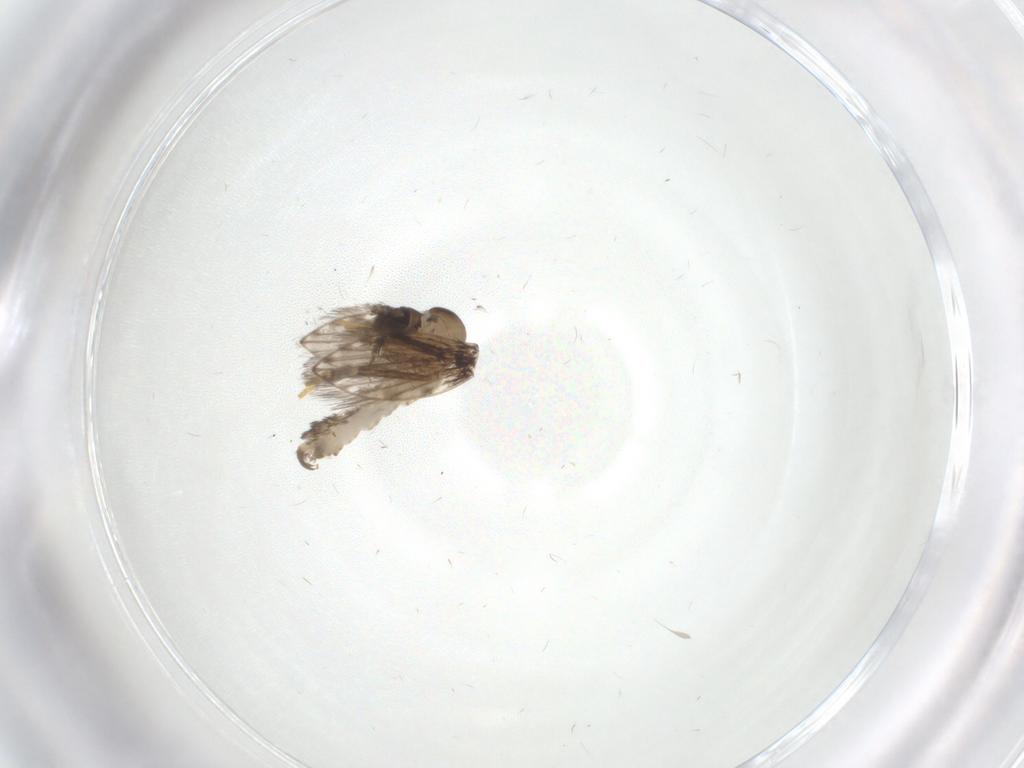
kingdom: Animalia
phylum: Arthropoda
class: Insecta
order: Diptera
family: Psychodidae
